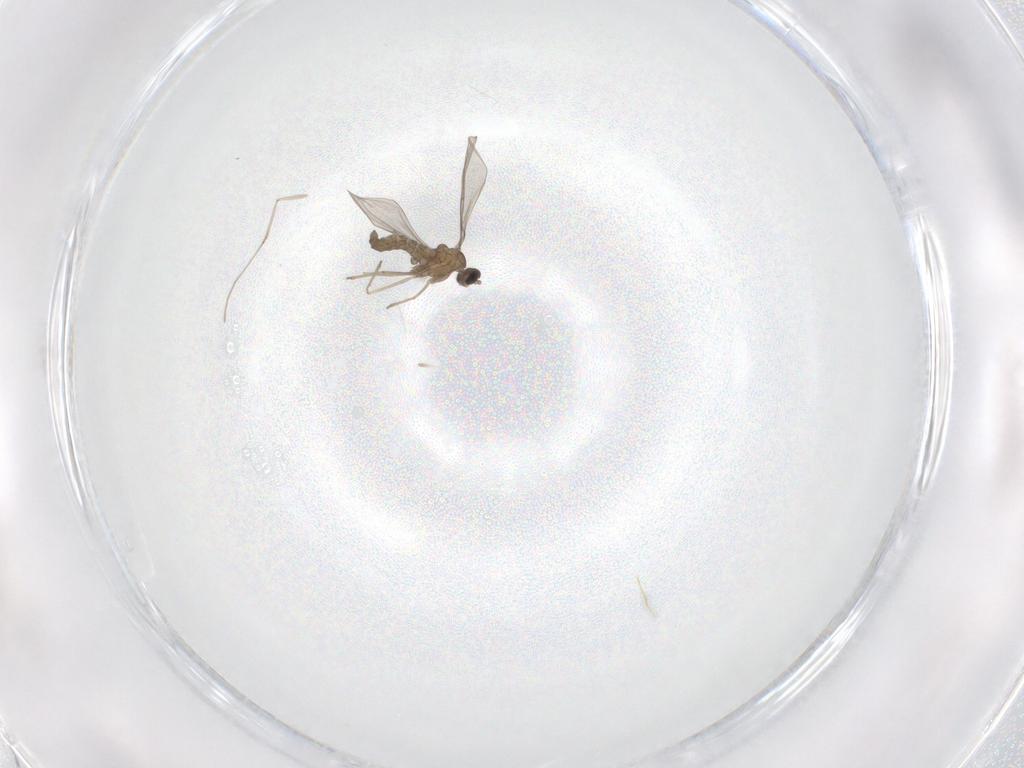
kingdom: Animalia
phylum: Arthropoda
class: Insecta
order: Diptera
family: Cecidomyiidae
